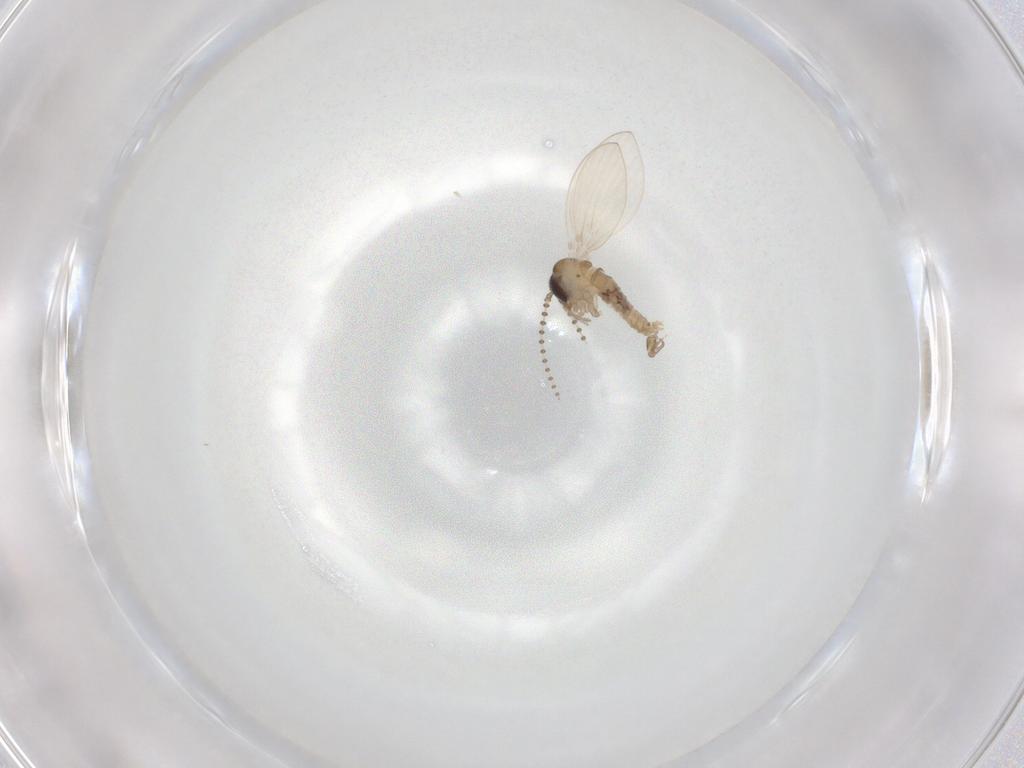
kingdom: Animalia
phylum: Arthropoda
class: Insecta
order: Diptera
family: Psychodidae
